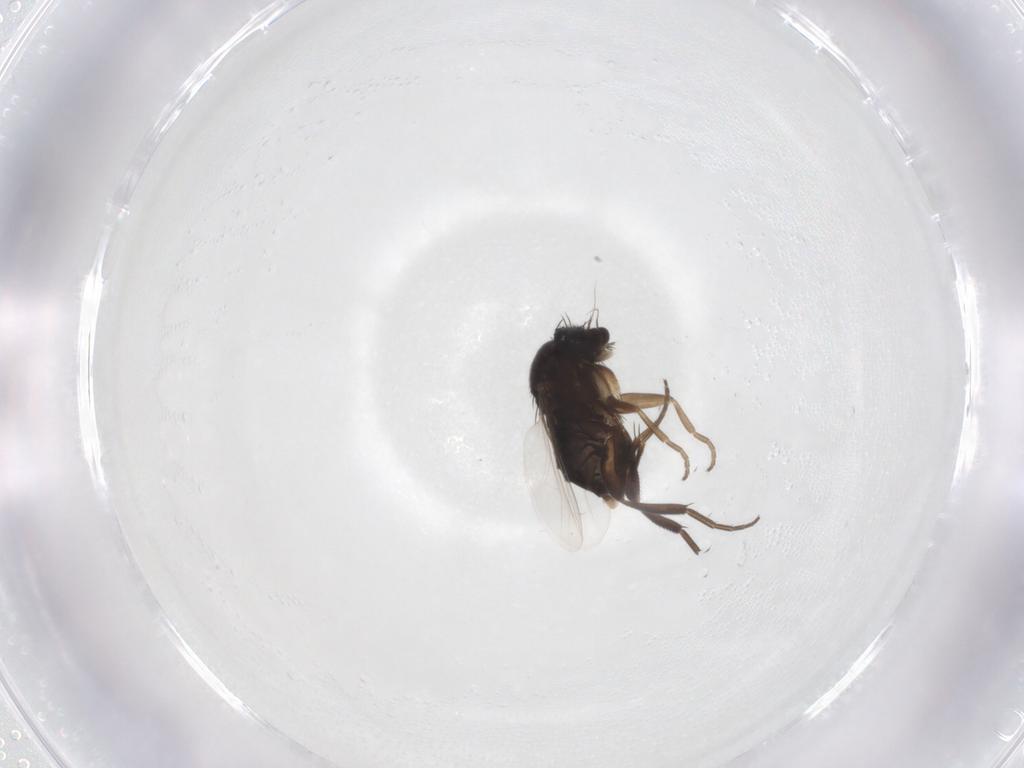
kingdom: Animalia
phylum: Arthropoda
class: Insecta
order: Diptera
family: Phoridae
